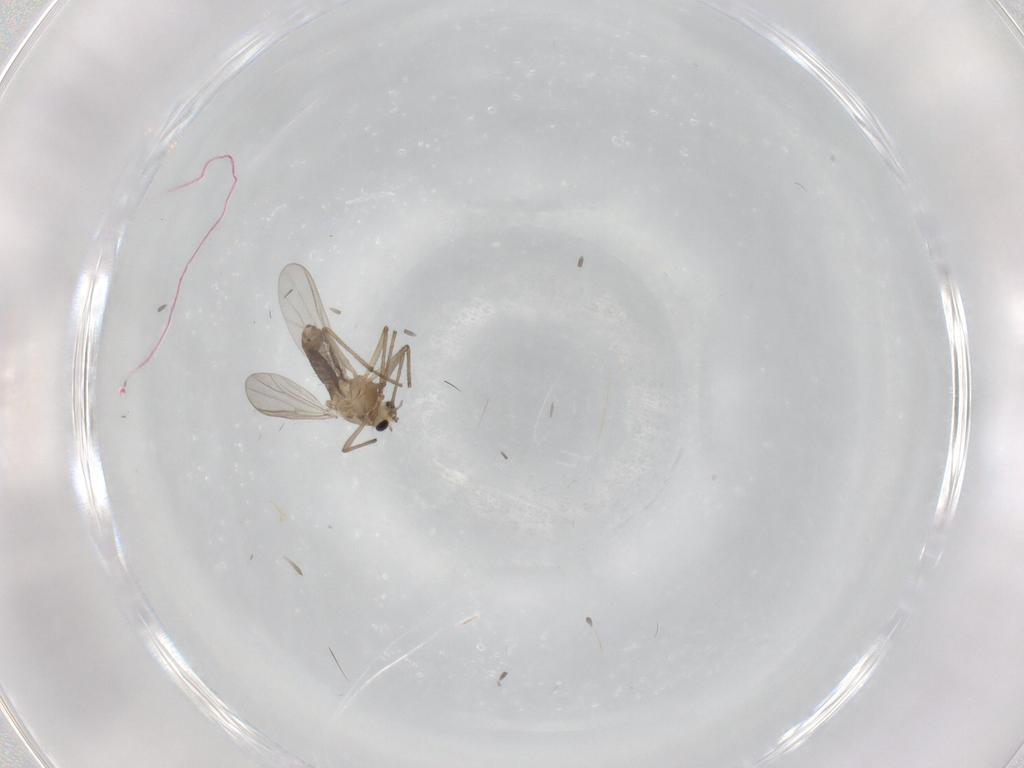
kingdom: Animalia
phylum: Arthropoda
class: Insecta
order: Diptera
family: Chironomidae
